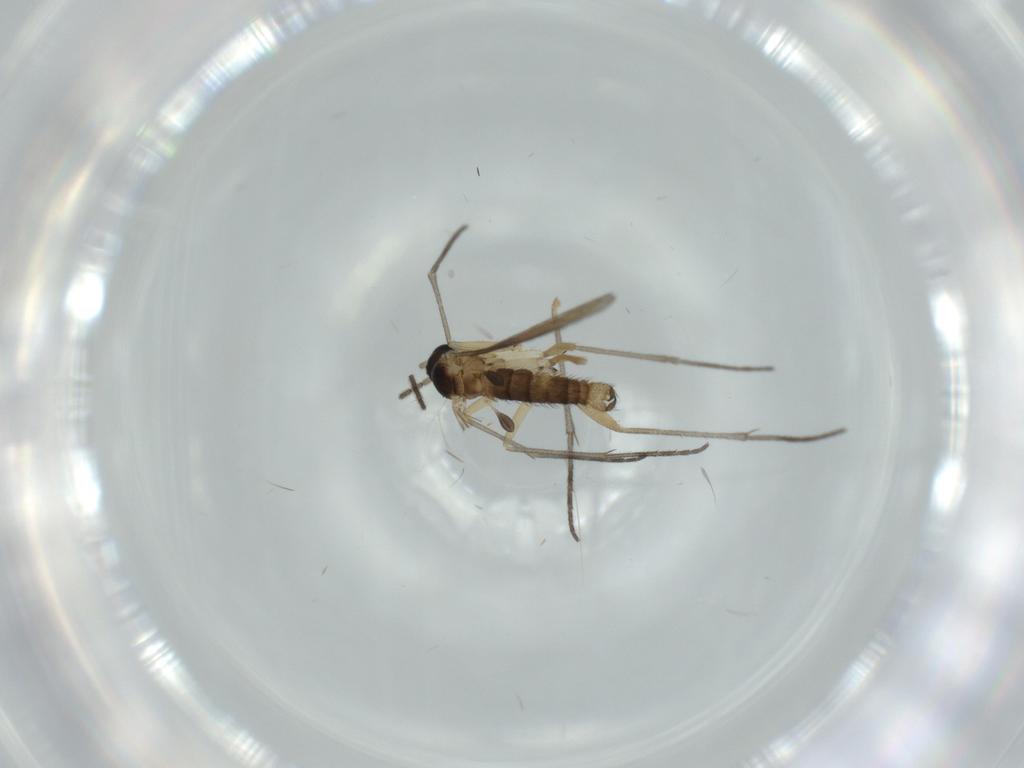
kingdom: Animalia
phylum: Arthropoda
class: Insecta
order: Diptera
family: Sciaridae
